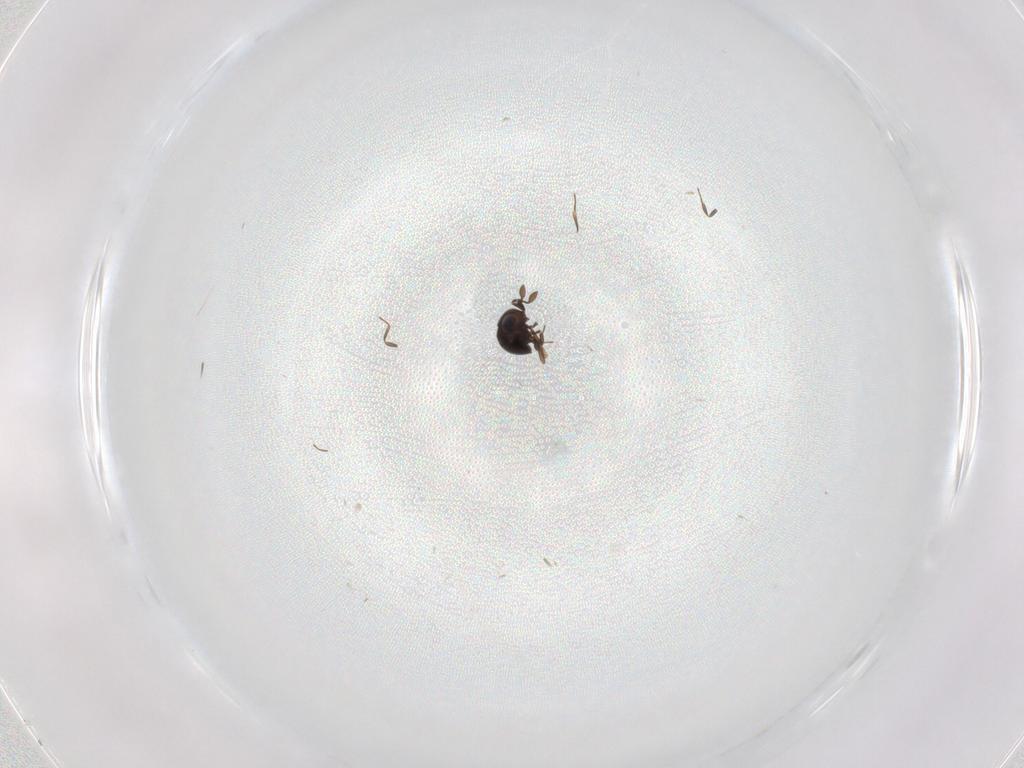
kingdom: Animalia
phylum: Arthropoda
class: Insecta
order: Hymenoptera
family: Scelionidae
